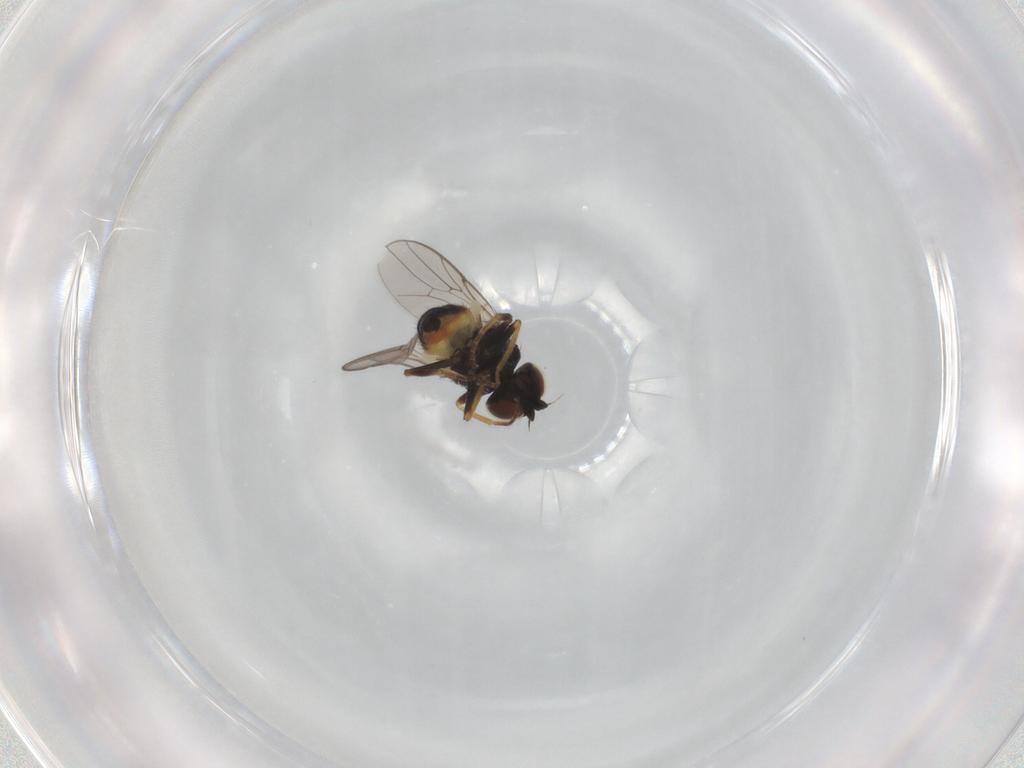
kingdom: Animalia
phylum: Arthropoda
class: Insecta
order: Diptera
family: Chloropidae
